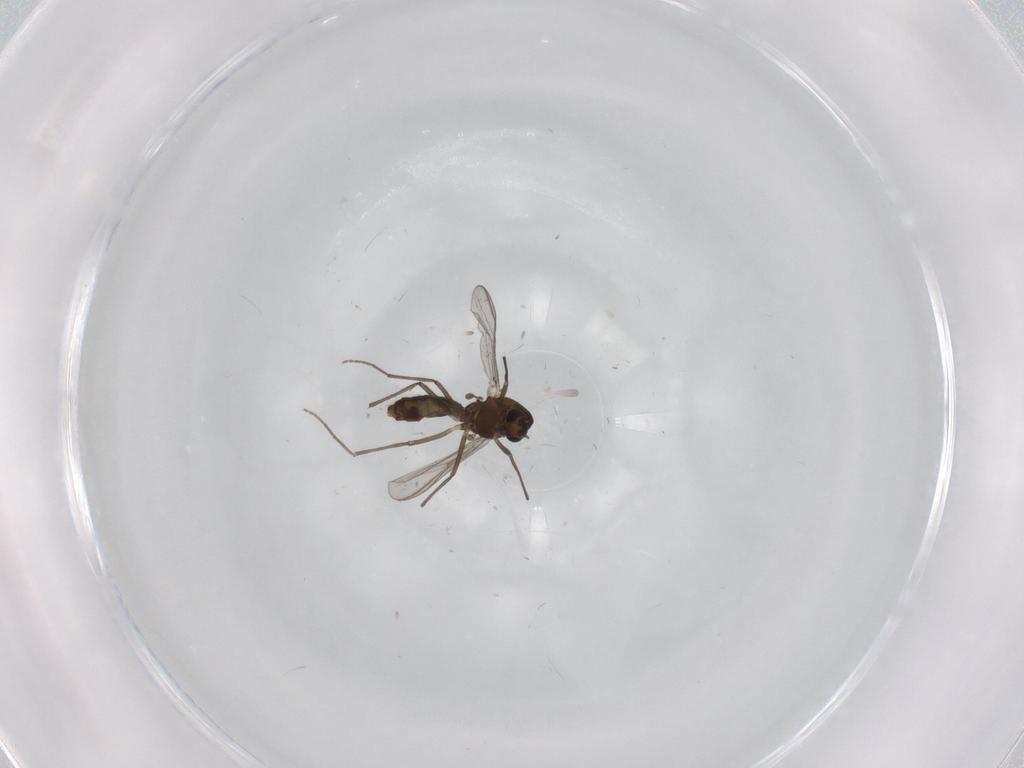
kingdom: Animalia
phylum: Arthropoda
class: Insecta
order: Diptera
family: Chironomidae
